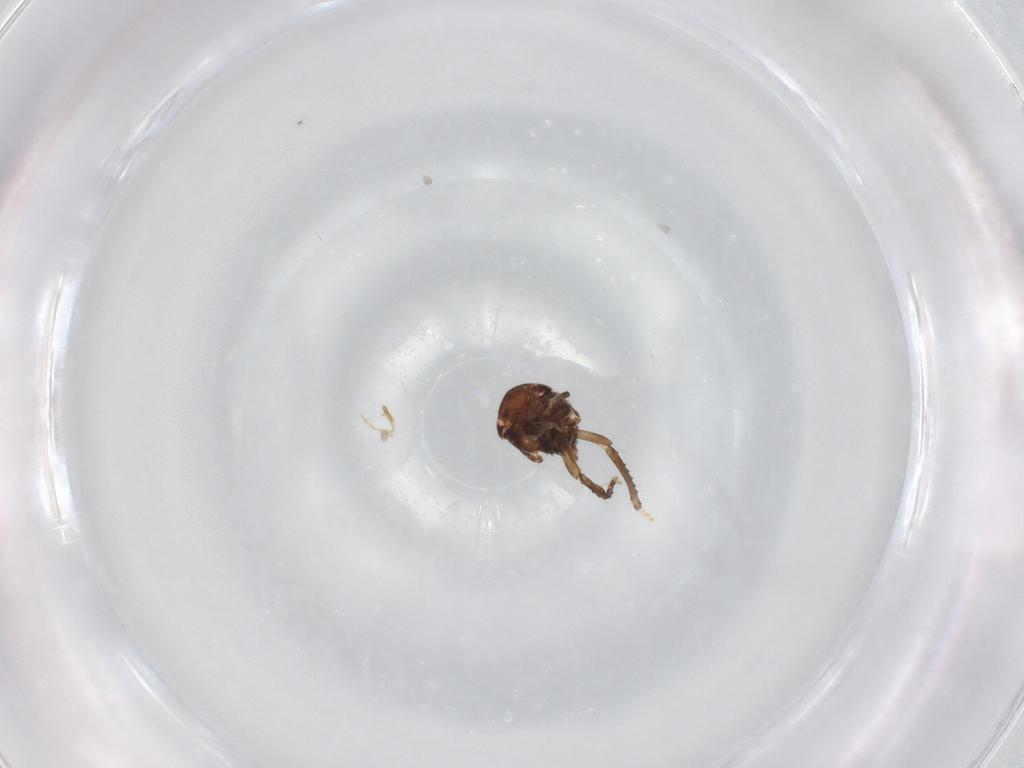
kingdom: Animalia
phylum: Arthropoda
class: Insecta
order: Hemiptera
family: Cicadellidae
